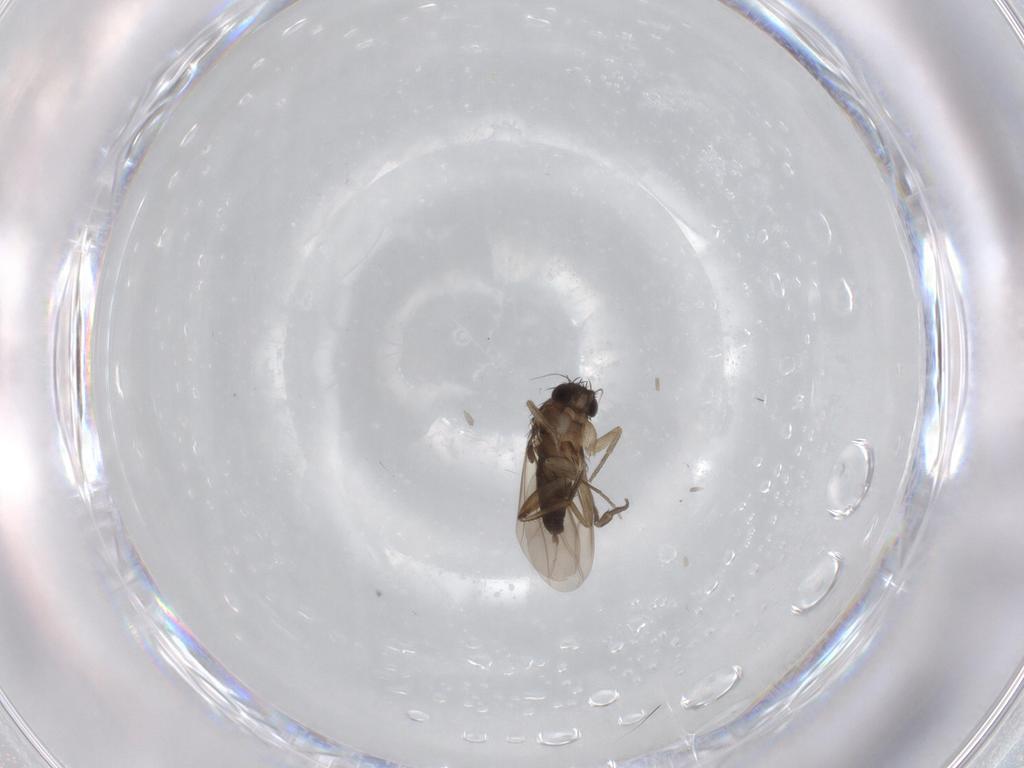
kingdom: Animalia
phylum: Arthropoda
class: Insecta
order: Diptera
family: Phoridae
